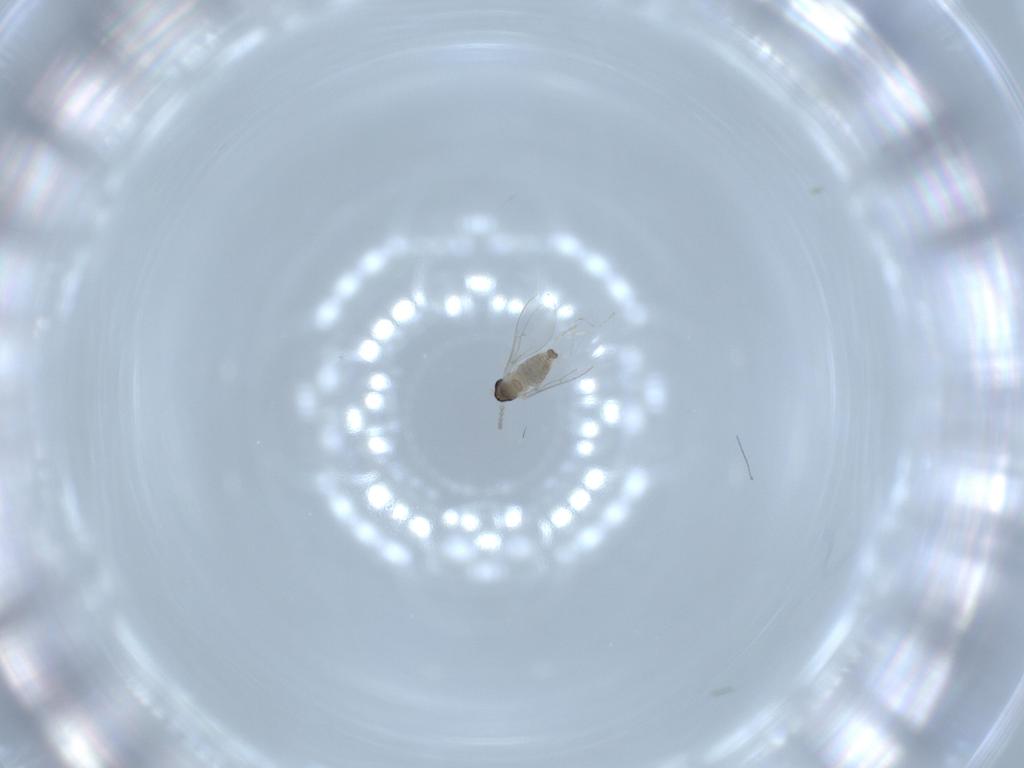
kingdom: Animalia
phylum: Arthropoda
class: Insecta
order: Diptera
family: Cecidomyiidae
